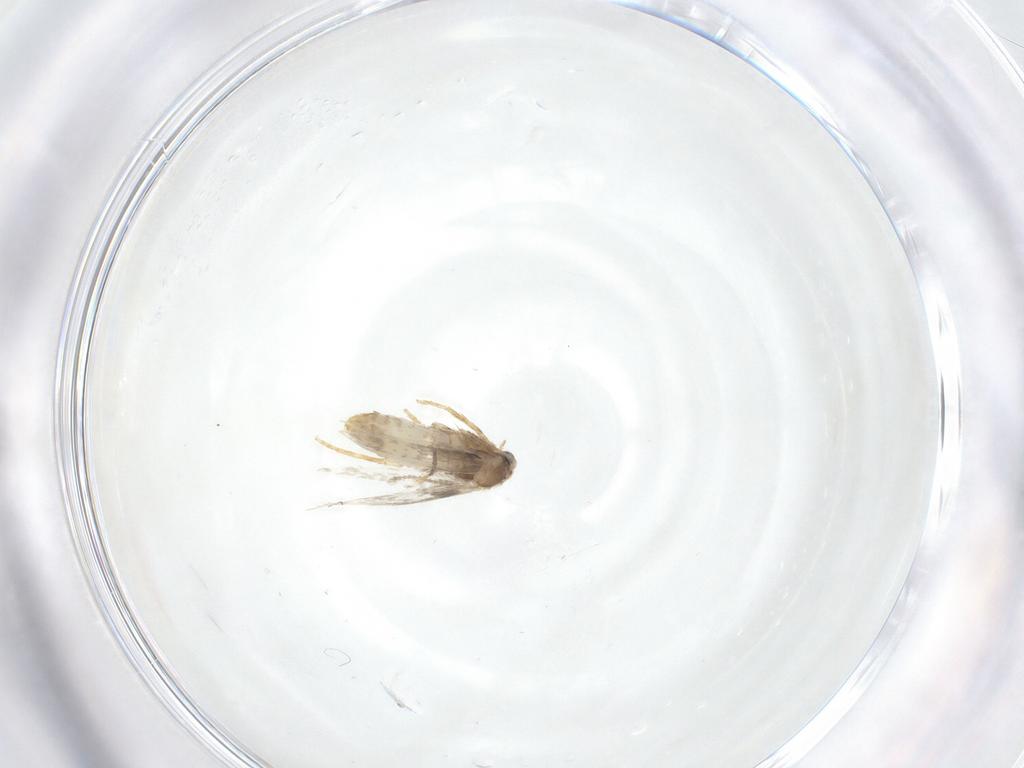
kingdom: Animalia
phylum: Arthropoda
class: Insecta
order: Lepidoptera
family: Nepticulidae
